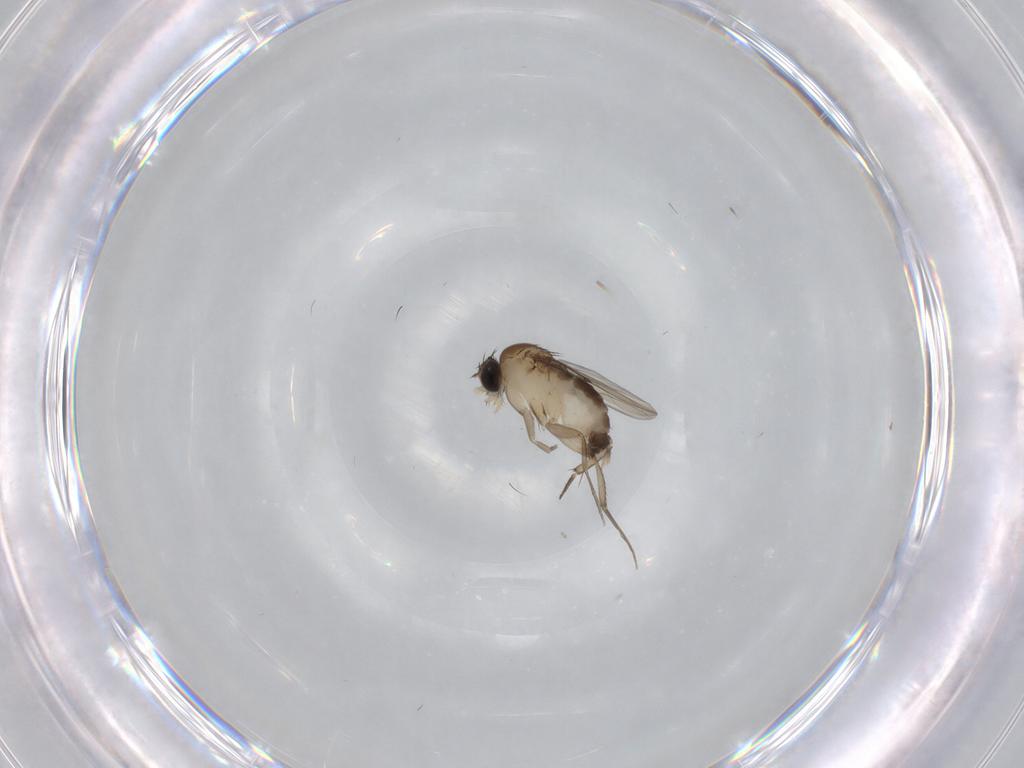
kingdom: Animalia
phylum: Arthropoda
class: Insecta
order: Diptera
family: Phoridae
